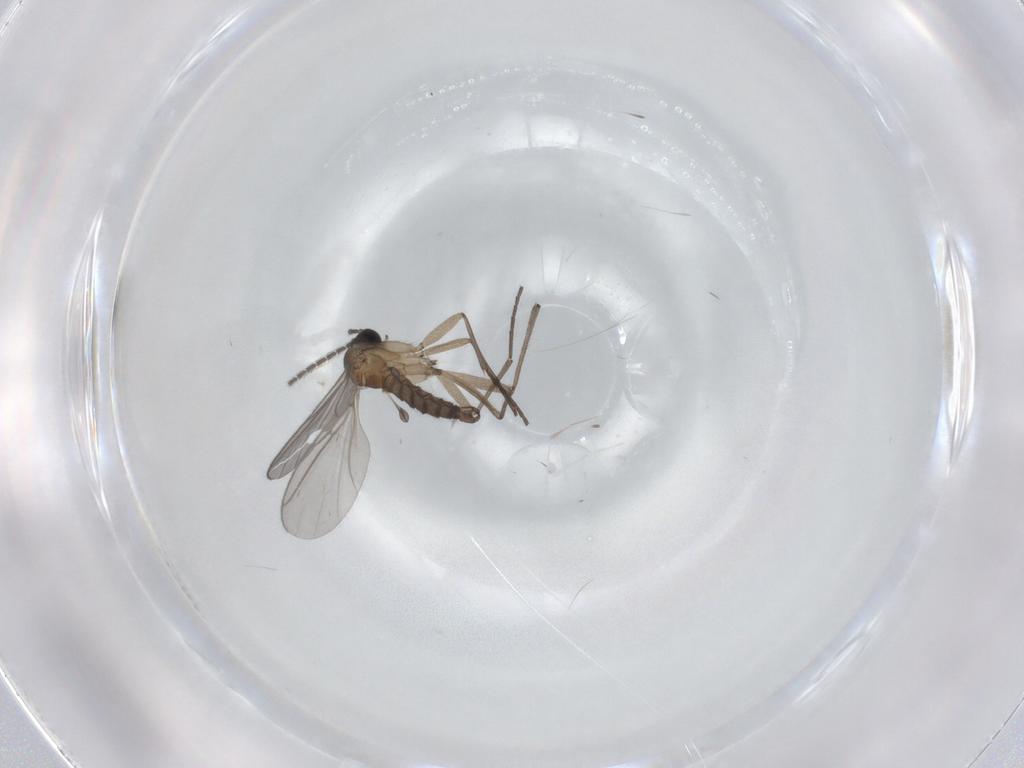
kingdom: Animalia
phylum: Arthropoda
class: Insecta
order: Diptera
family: Sciaridae
